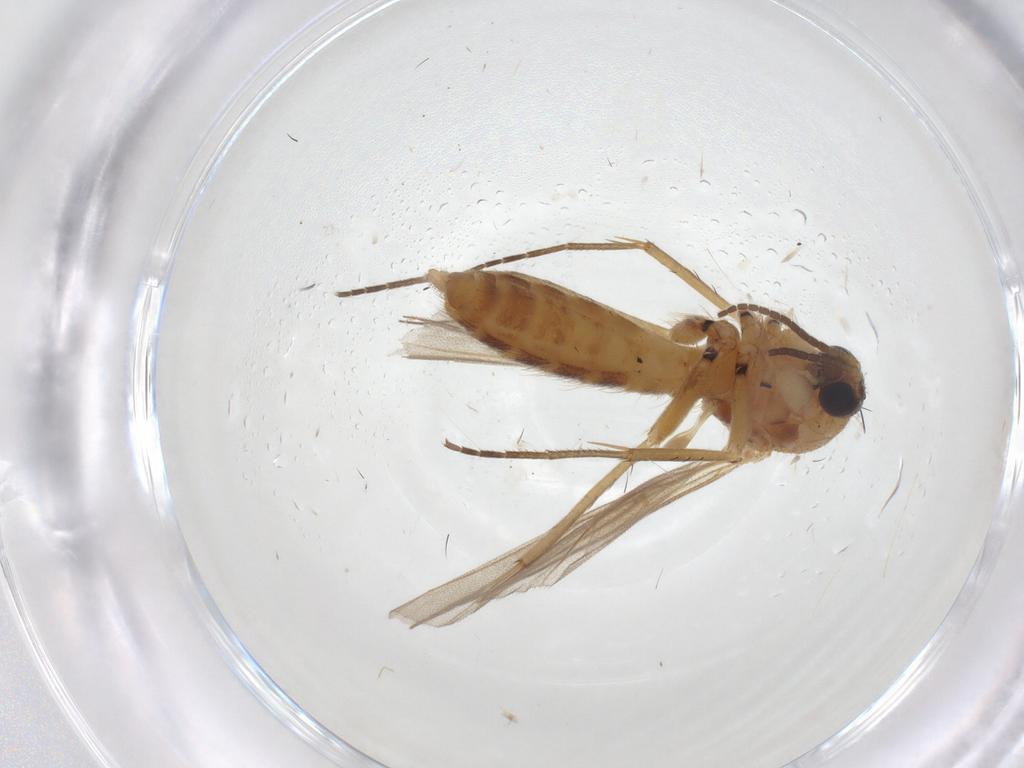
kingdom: Animalia
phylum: Arthropoda
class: Insecta
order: Diptera
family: Mycetophilidae
